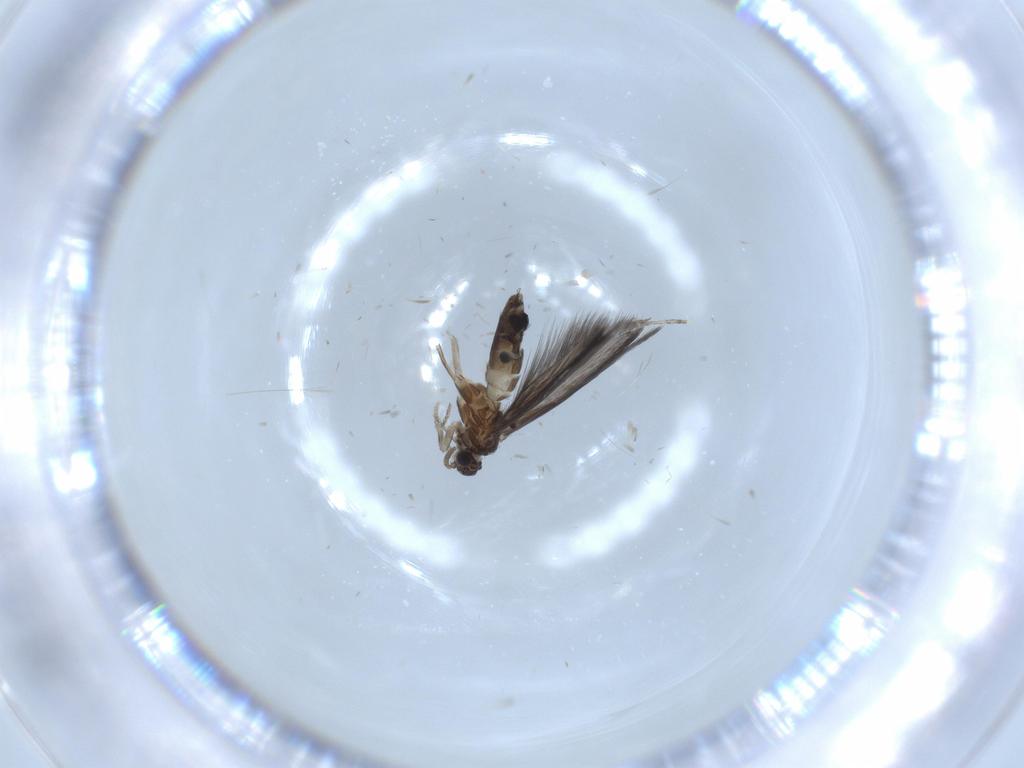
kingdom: Animalia
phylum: Arthropoda
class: Insecta
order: Trichoptera
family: Hydroptilidae
